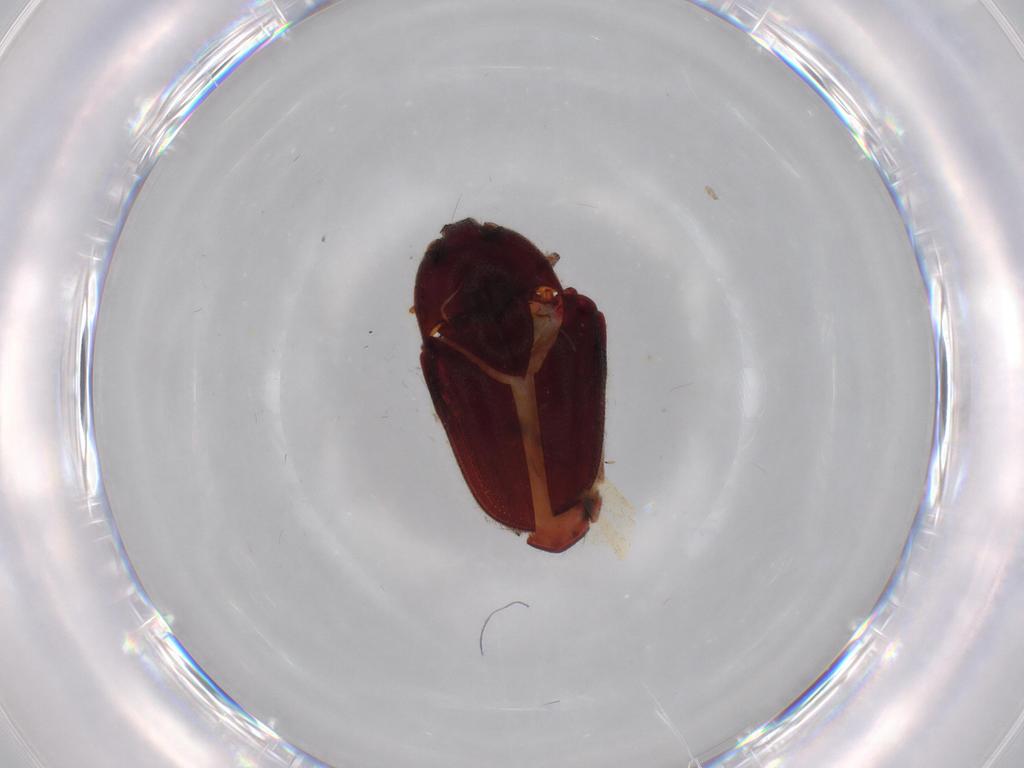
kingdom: Animalia
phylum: Arthropoda
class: Insecta
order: Coleoptera
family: Throscidae
